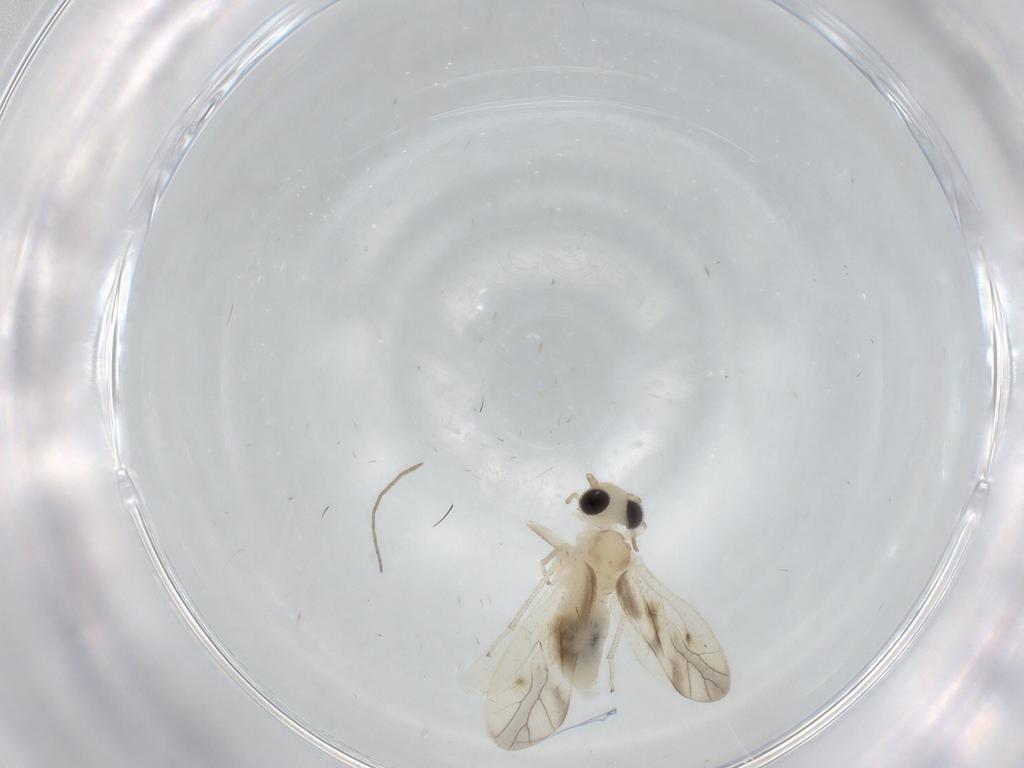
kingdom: Animalia
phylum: Arthropoda
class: Insecta
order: Psocodea
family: Caeciliusidae
